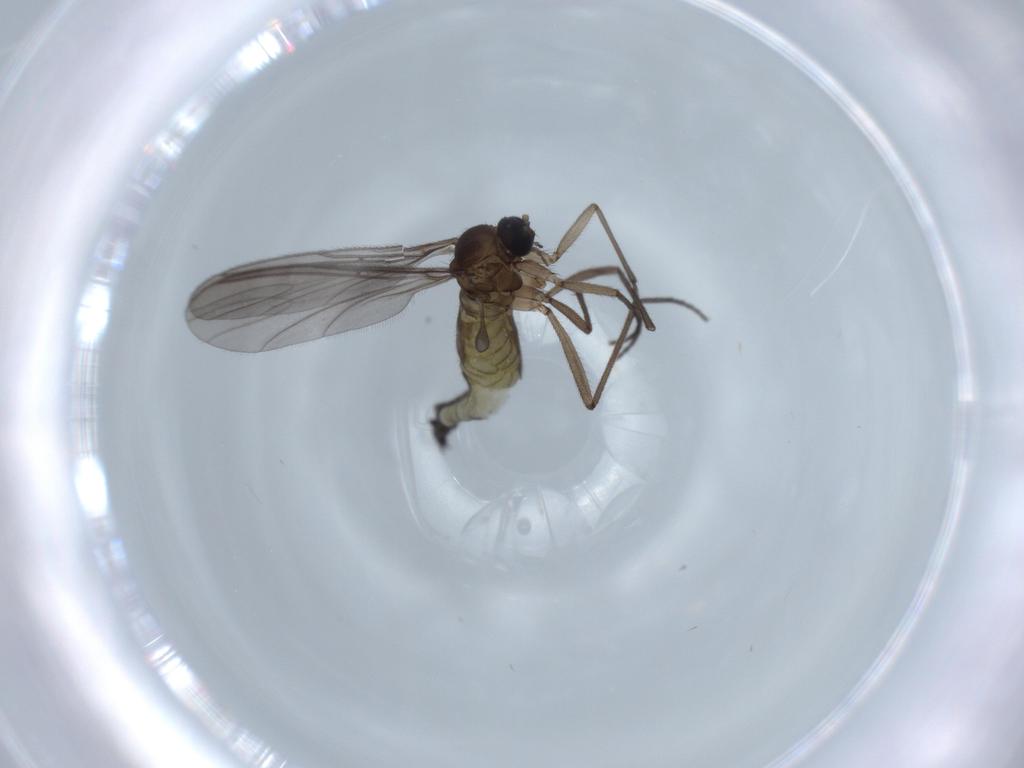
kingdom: Animalia
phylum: Arthropoda
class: Insecta
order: Diptera
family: Sciaridae
